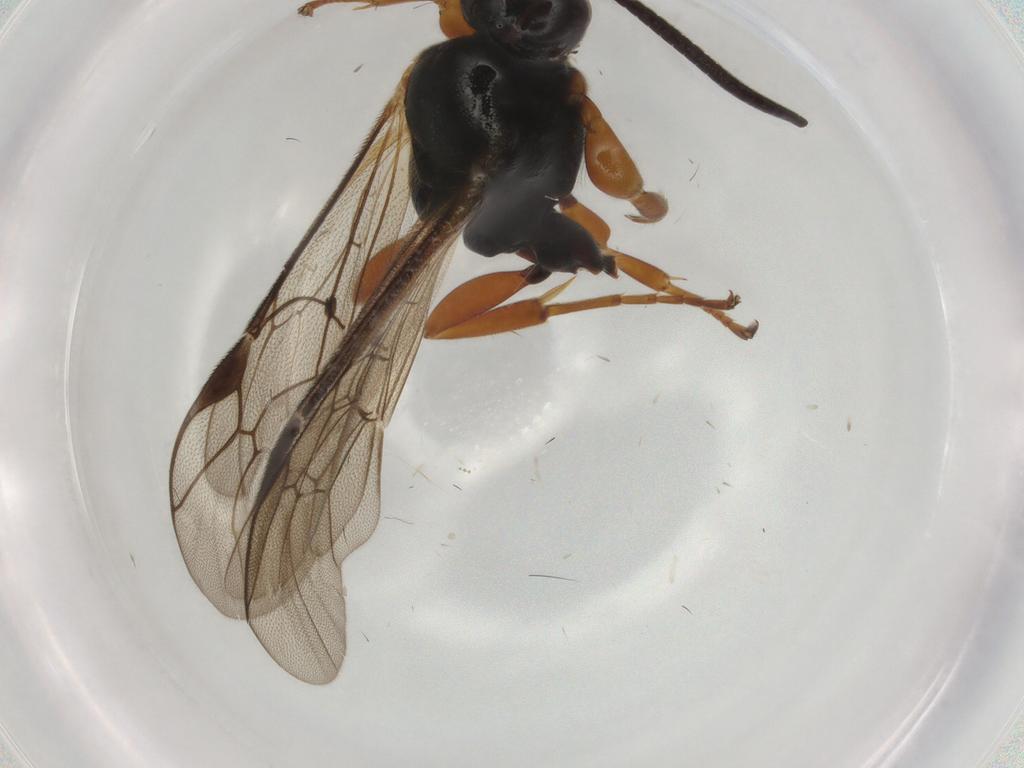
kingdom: Animalia
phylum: Arthropoda
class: Insecta
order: Hymenoptera
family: Ichneumonidae
